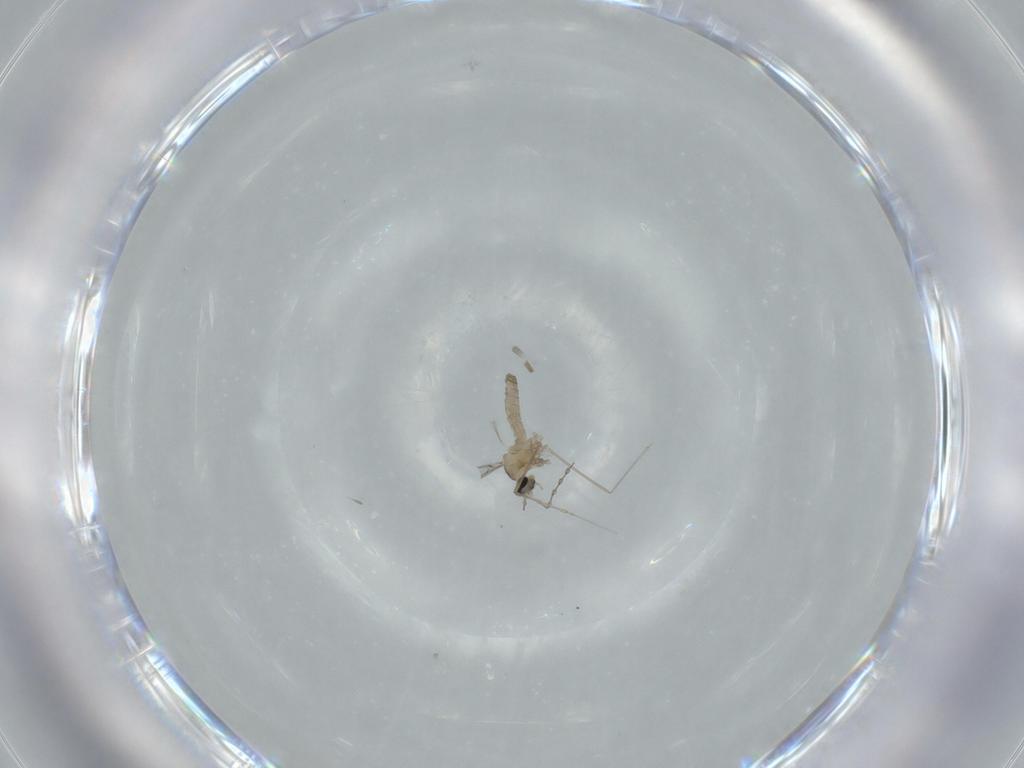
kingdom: Animalia
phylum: Arthropoda
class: Insecta
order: Diptera
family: Cecidomyiidae
